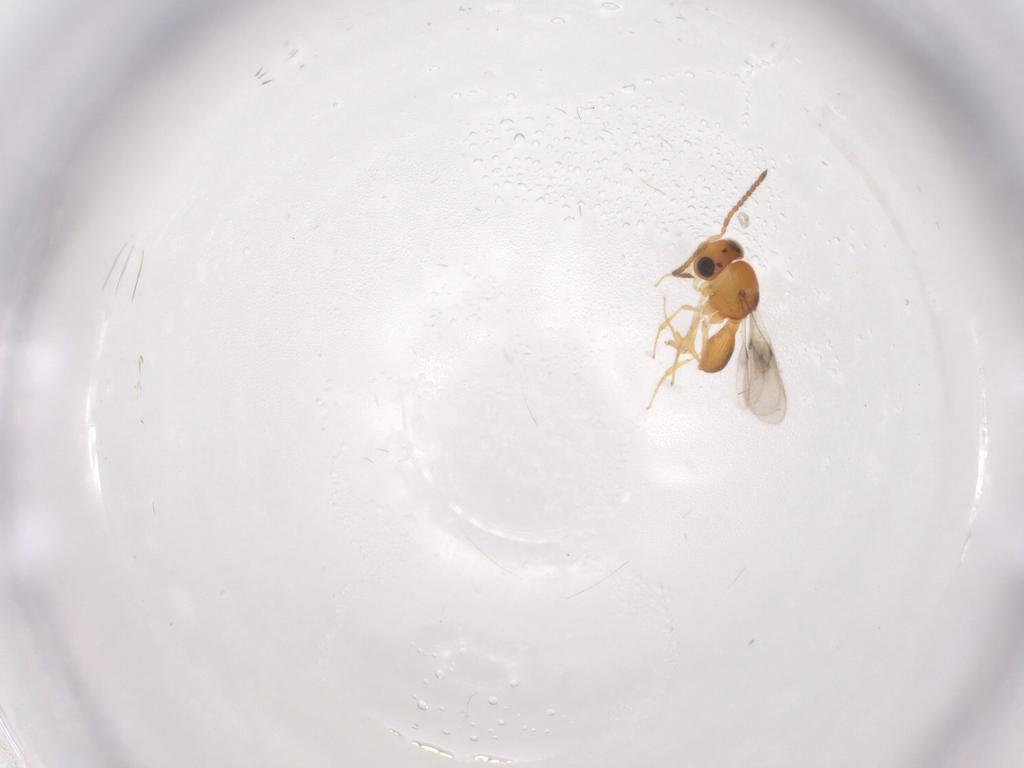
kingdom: Animalia
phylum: Arthropoda
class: Insecta
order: Hymenoptera
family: Scelionidae
